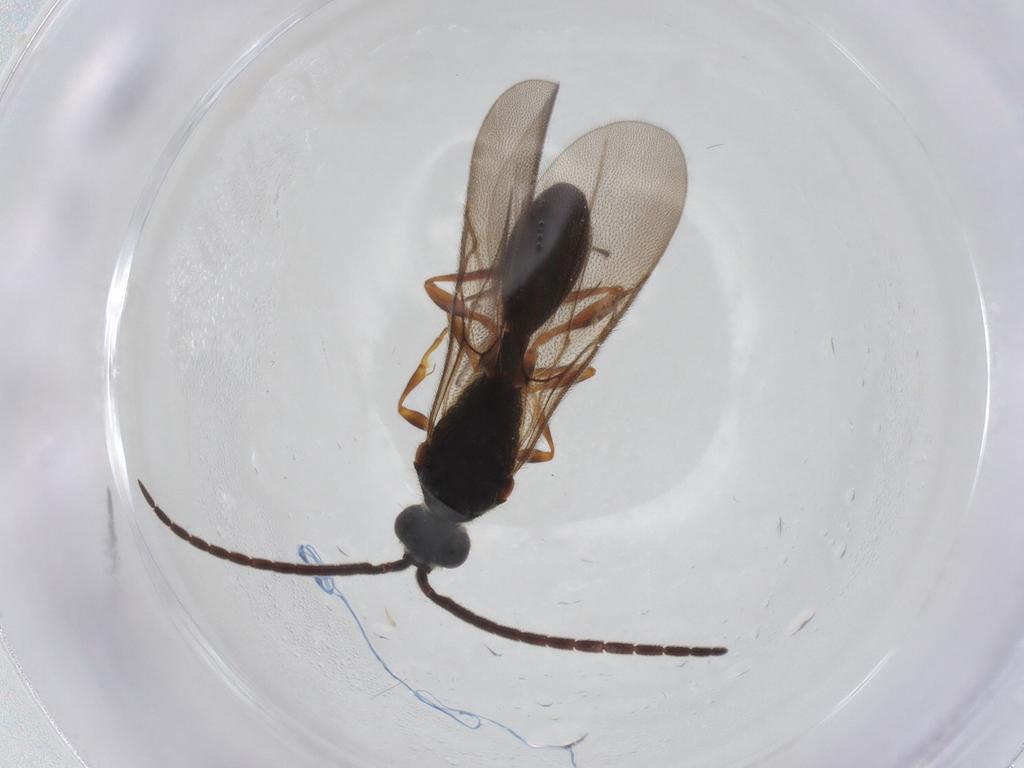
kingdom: Animalia
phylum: Arthropoda
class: Insecta
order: Hymenoptera
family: Diapriidae
